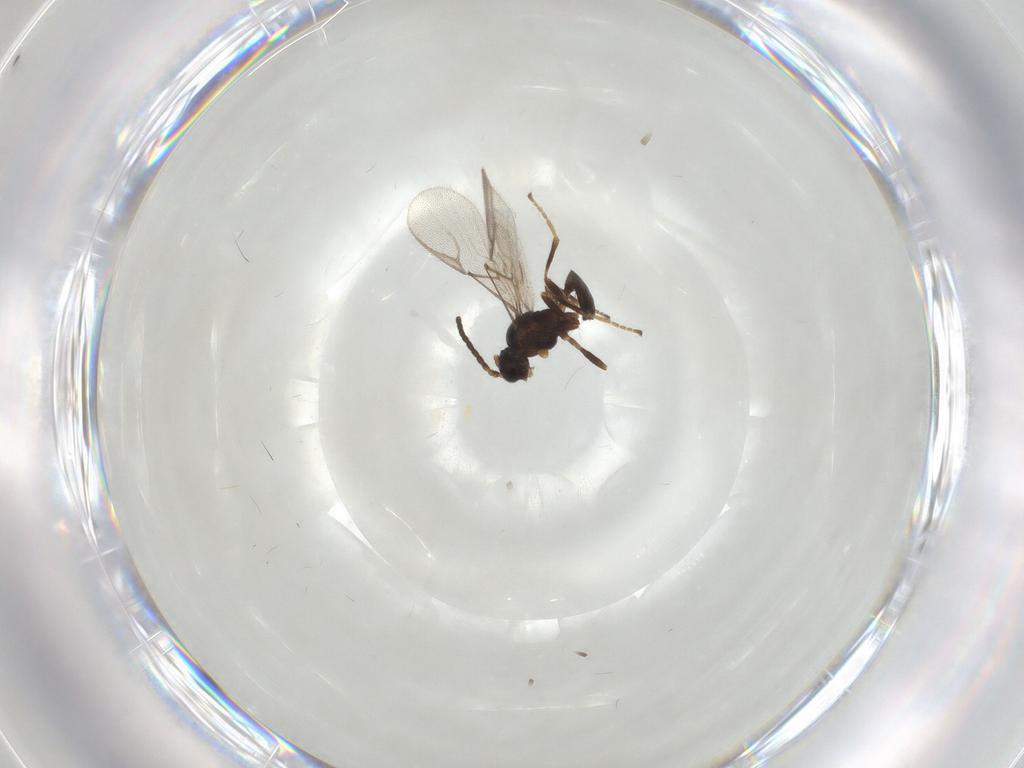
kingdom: Animalia
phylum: Arthropoda
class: Insecta
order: Hymenoptera
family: Braconidae
